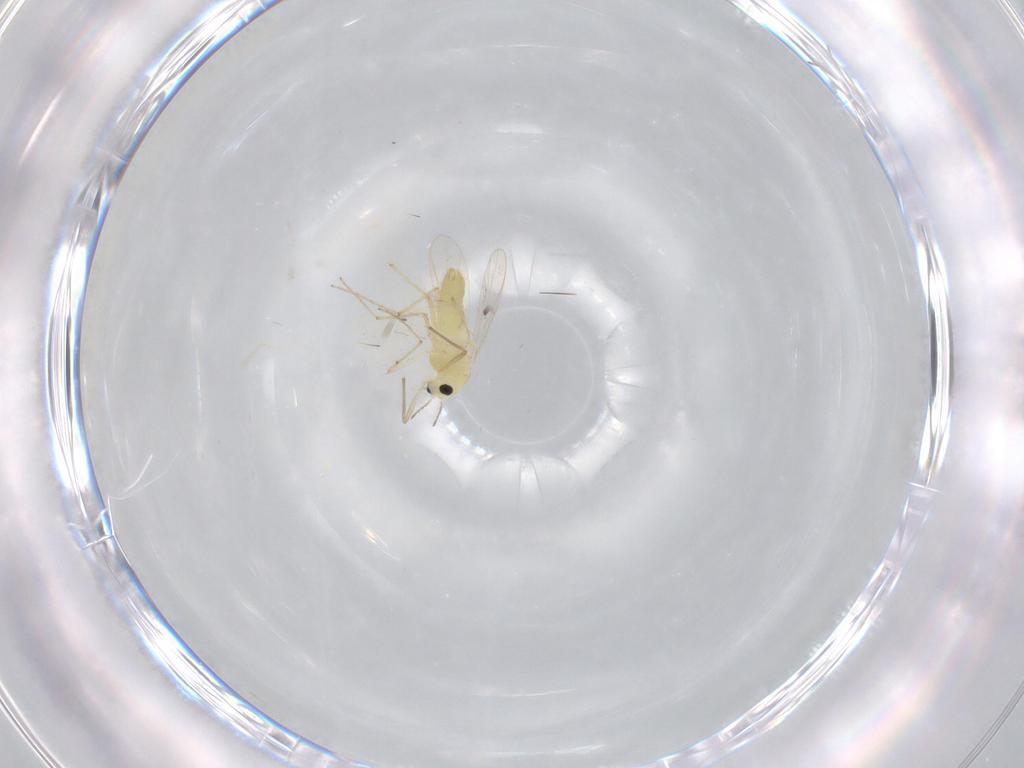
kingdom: Animalia
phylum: Arthropoda
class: Insecta
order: Diptera
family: Chironomidae
